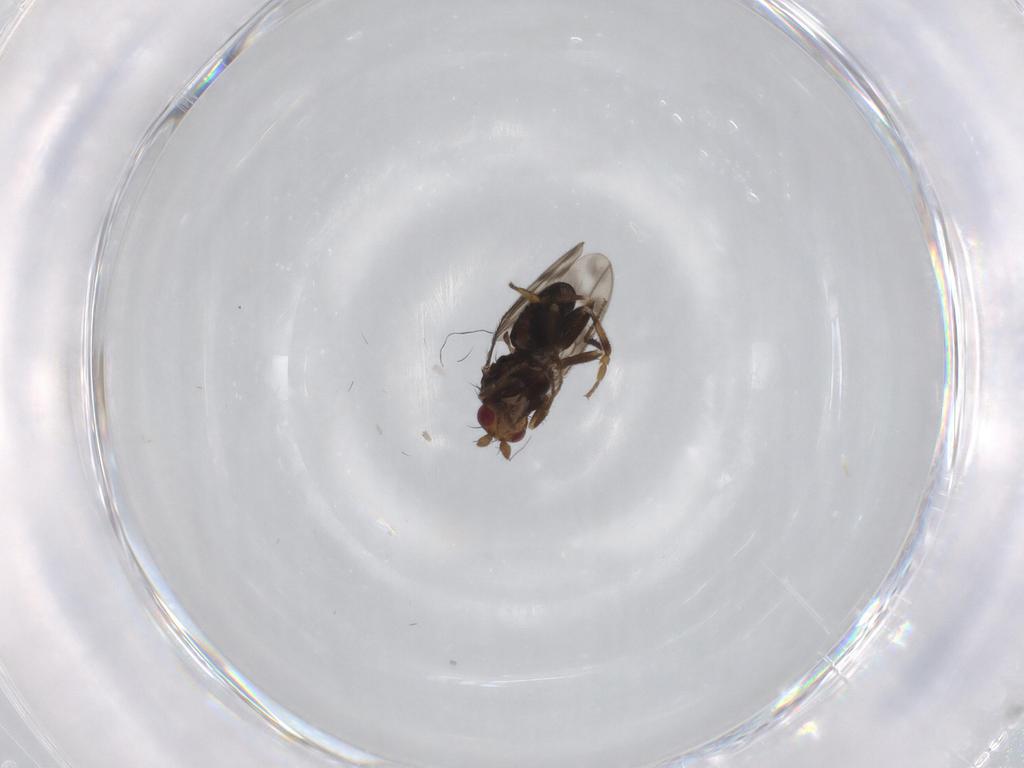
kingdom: Animalia
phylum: Arthropoda
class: Insecta
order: Diptera
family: Sphaeroceridae
